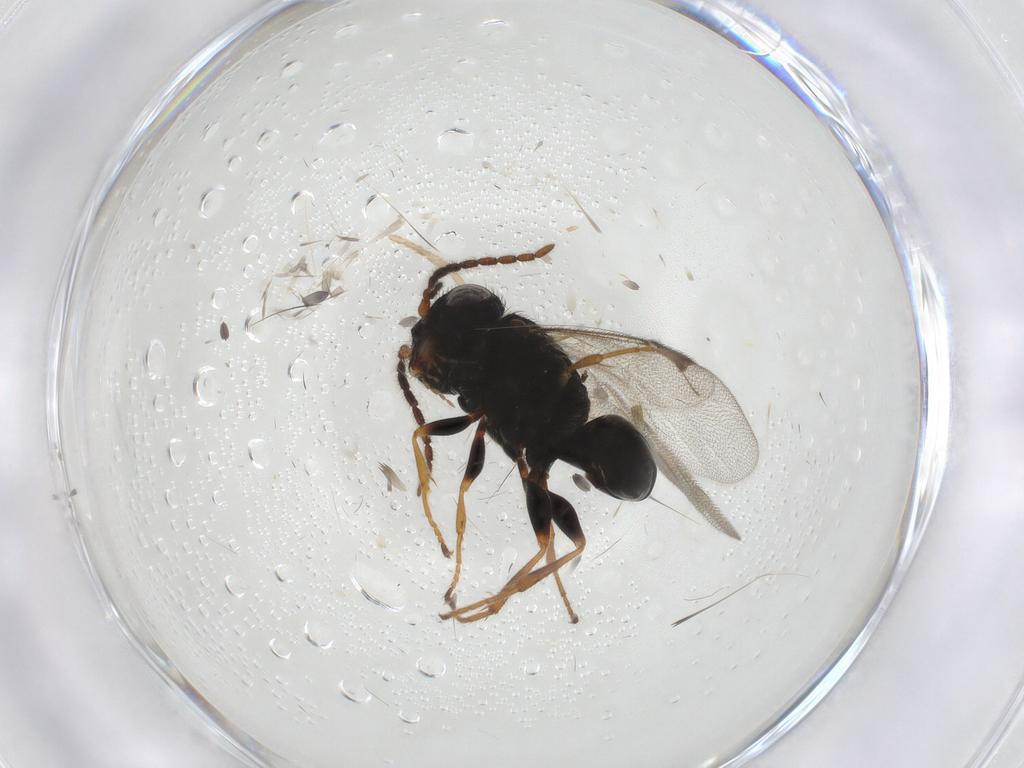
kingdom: Animalia
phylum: Arthropoda
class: Insecta
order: Hymenoptera
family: Dryinidae
